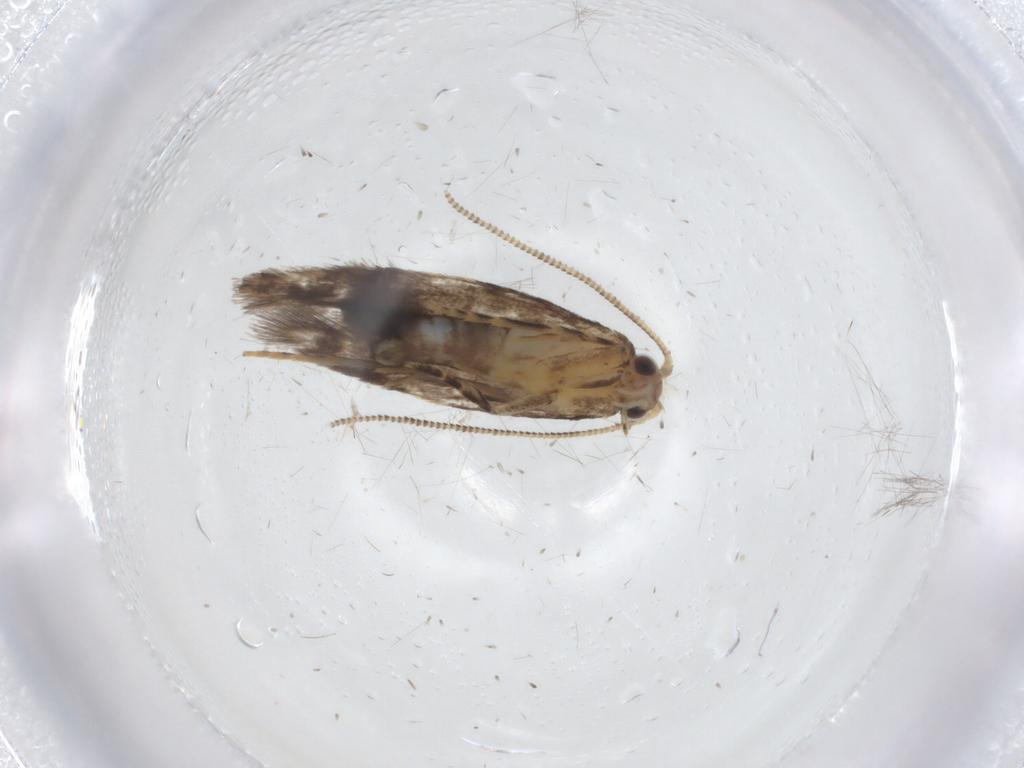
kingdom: Animalia
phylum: Arthropoda
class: Insecta
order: Lepidoptera
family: Tineidae
